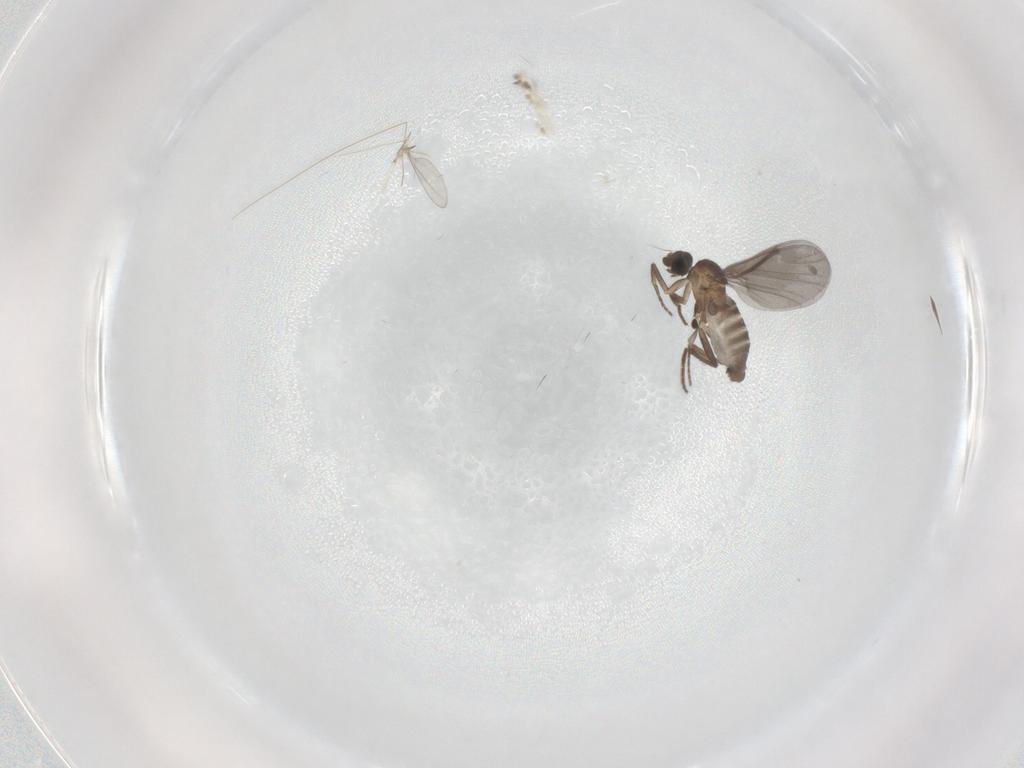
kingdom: Animalia
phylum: Arthropoda
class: Insecta
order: Diptera
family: Phoridae
